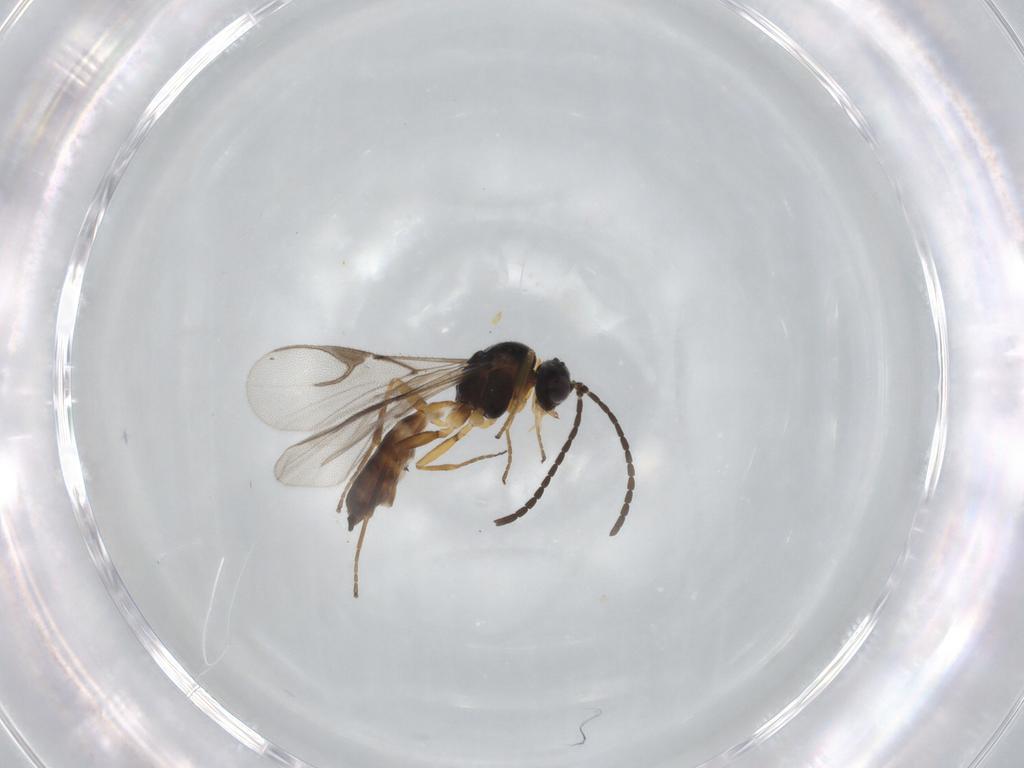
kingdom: Animalia
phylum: Arthropoda
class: Insecta
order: Hymenoptera
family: Braconidae
